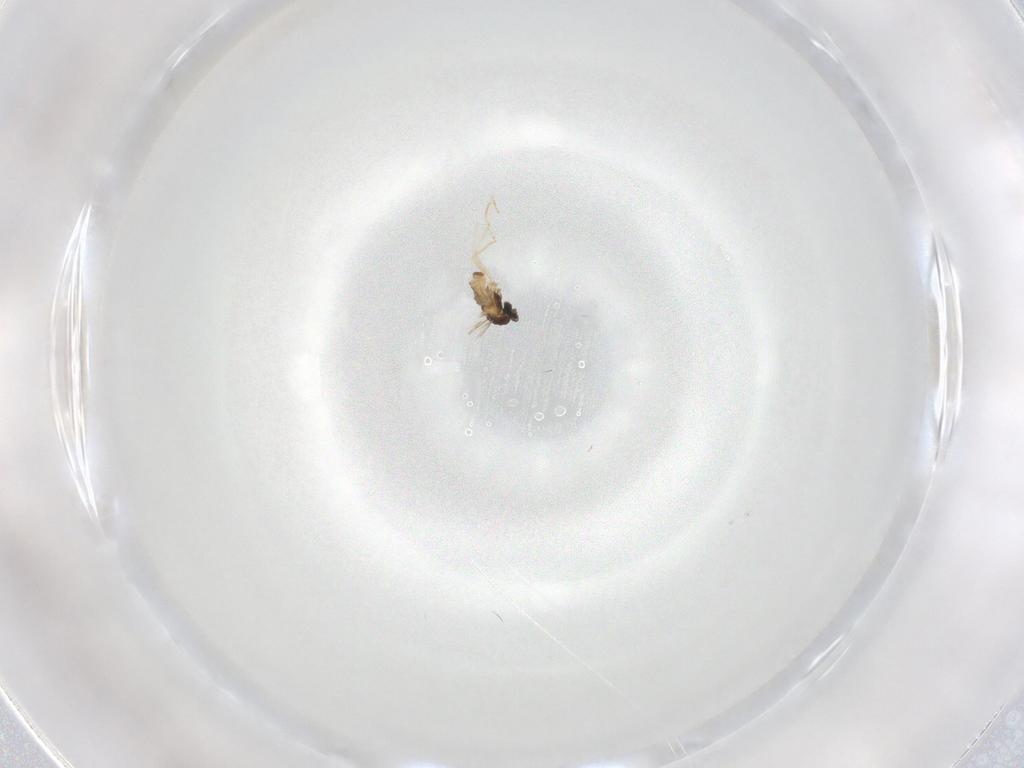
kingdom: Animalia
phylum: Arthropoda
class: Insecta
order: Diptera
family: Cecidomyiidae
